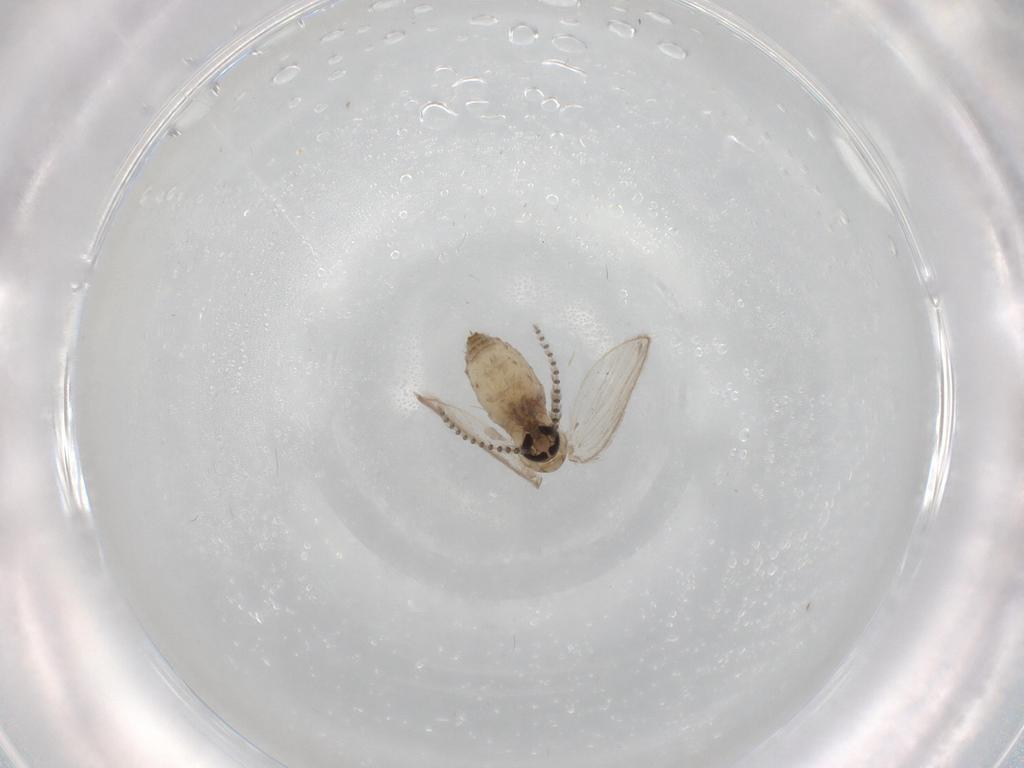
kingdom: Animalia
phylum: Arthropoda
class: Insecta
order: Diptera
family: Psychodidae
